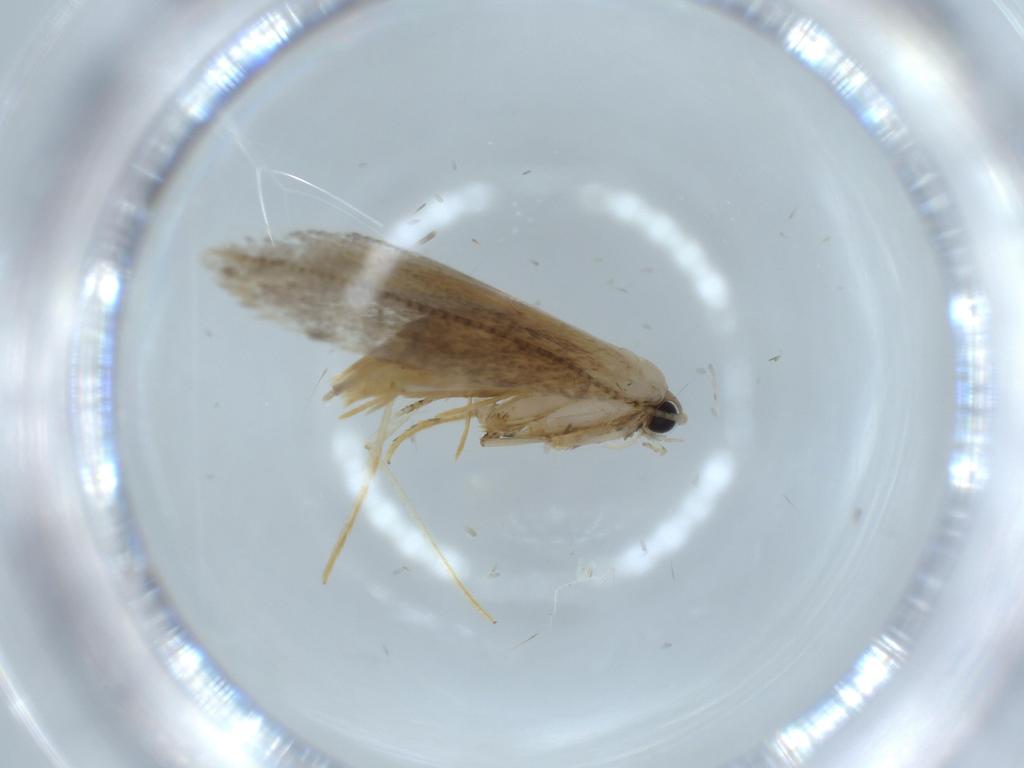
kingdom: Animalia
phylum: Arthropoda
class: Insecta
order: Lepidoptera
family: Tineidae
